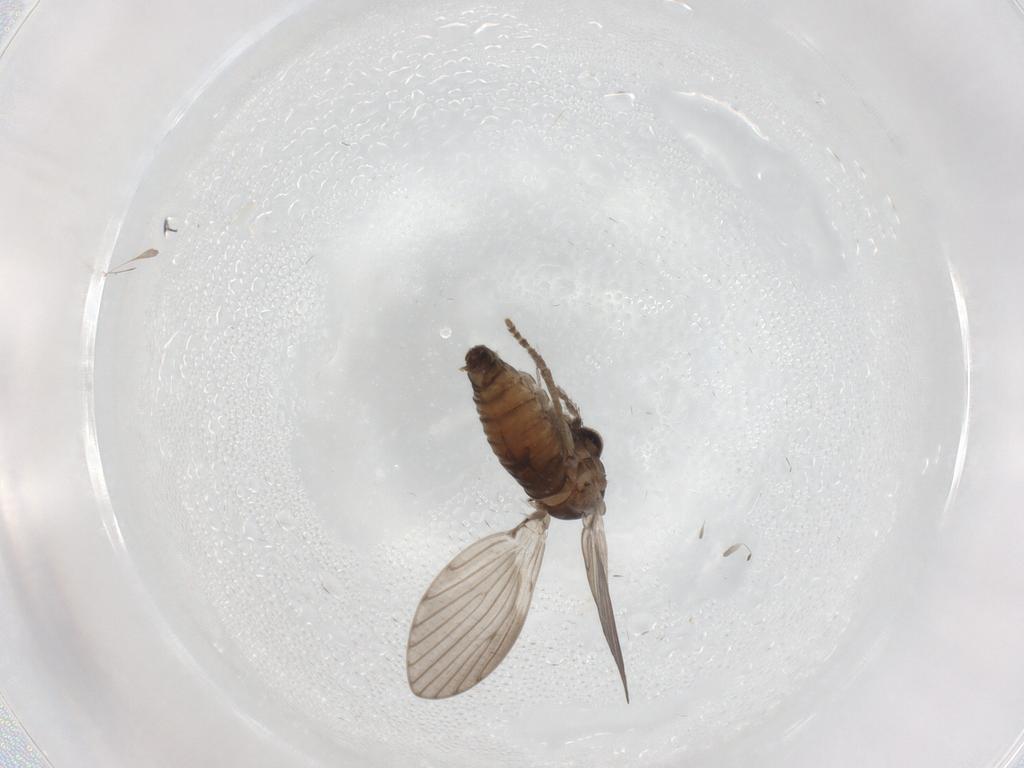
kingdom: Animalia
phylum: Arthropoda
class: Insecta
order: Diptera
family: Psychodidae
